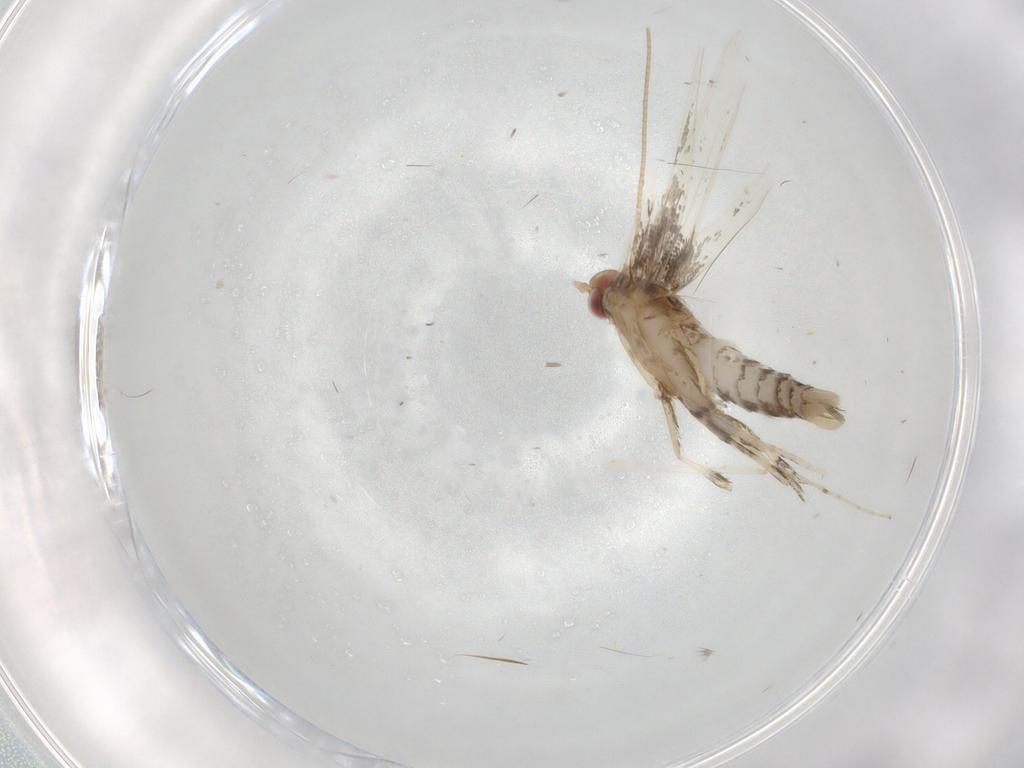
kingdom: Animalia
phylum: Arthropoda
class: Insecta
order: Lepidoptera
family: Gracillariidae
